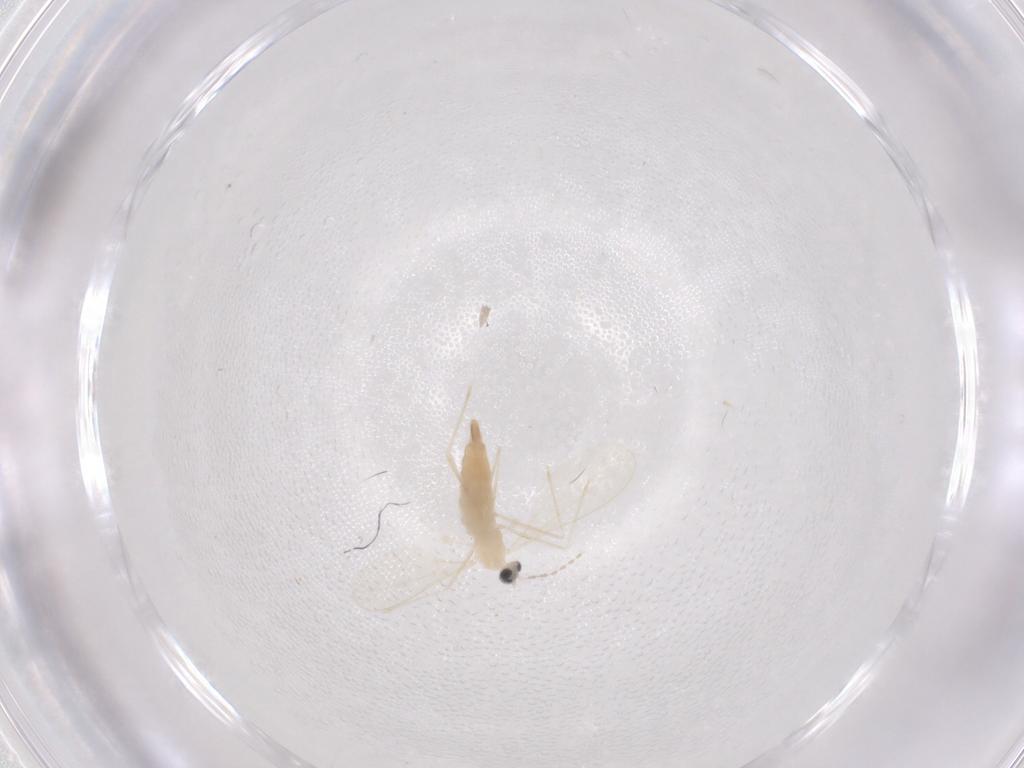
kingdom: Animalia
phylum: Arthropoda
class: Insecta
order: Diptera
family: Cecidomyiidae
